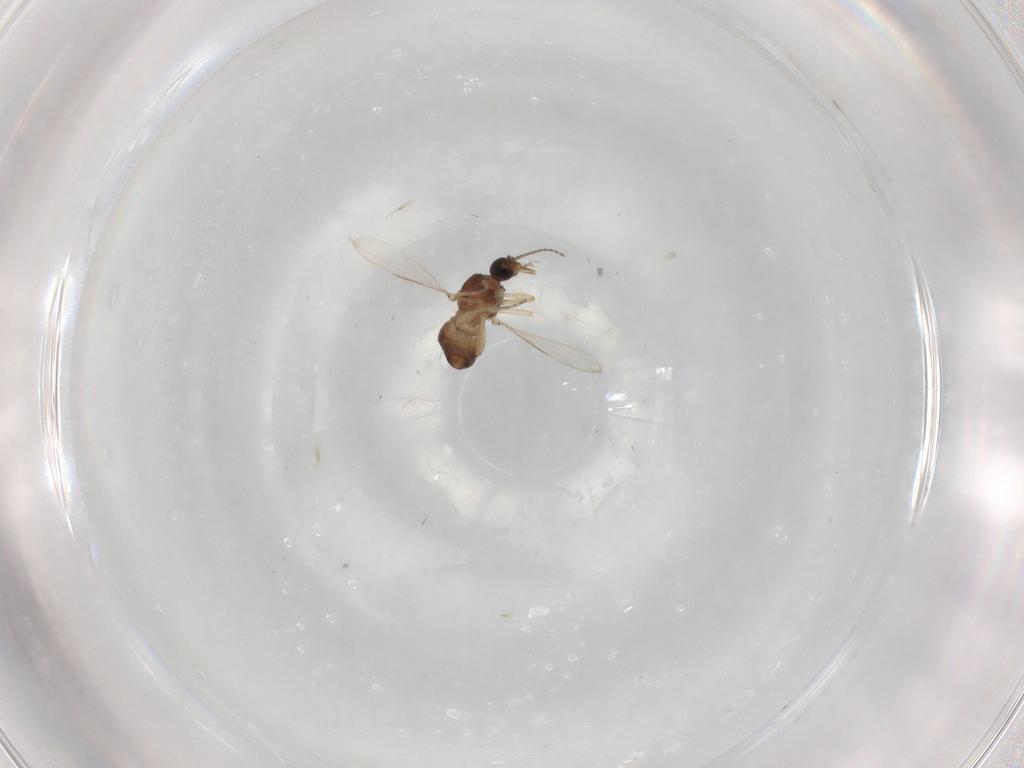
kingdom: Animalia
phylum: Arthropoda
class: Insecta
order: Diptera
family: Ceratopogonidae
